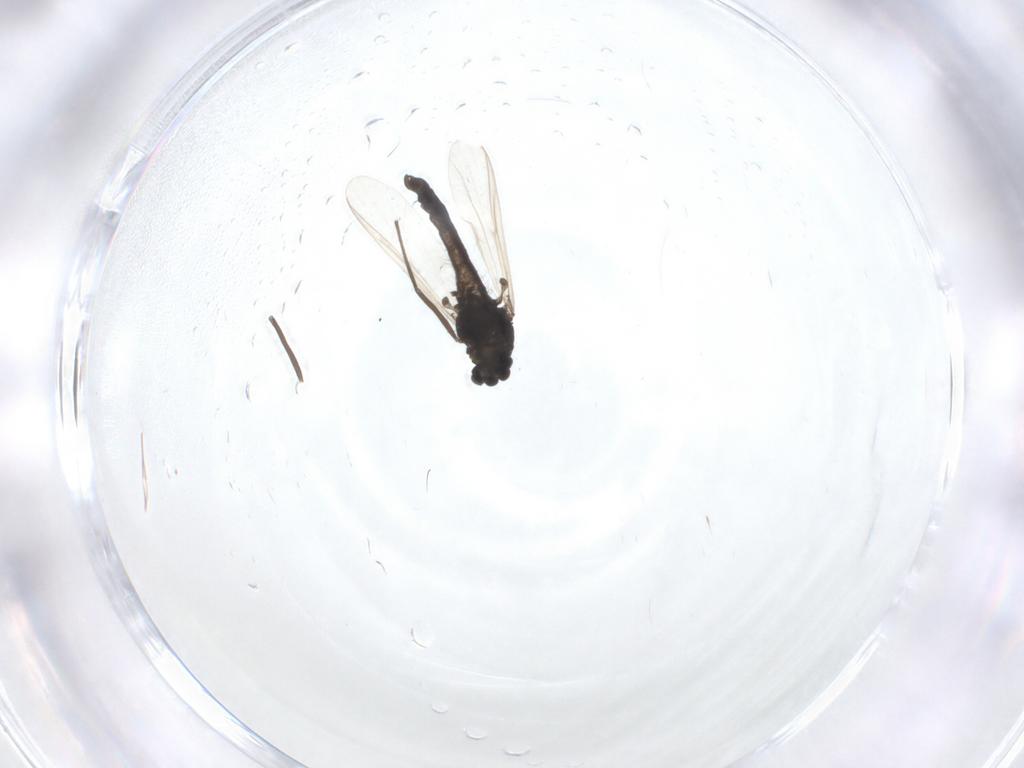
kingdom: Animalia
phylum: Arthropoda
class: Insecta
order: Diptera
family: Chironomidae
